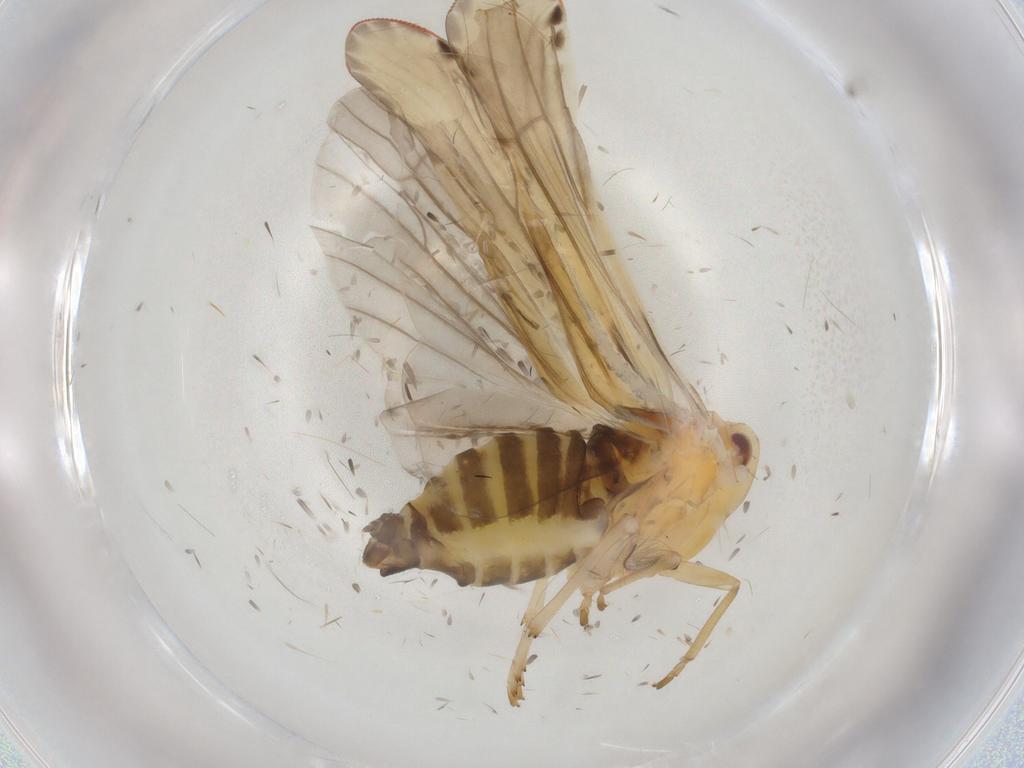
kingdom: Animalia
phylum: Arthropoda
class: Insecta
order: Hemiptera
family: Derbidae
